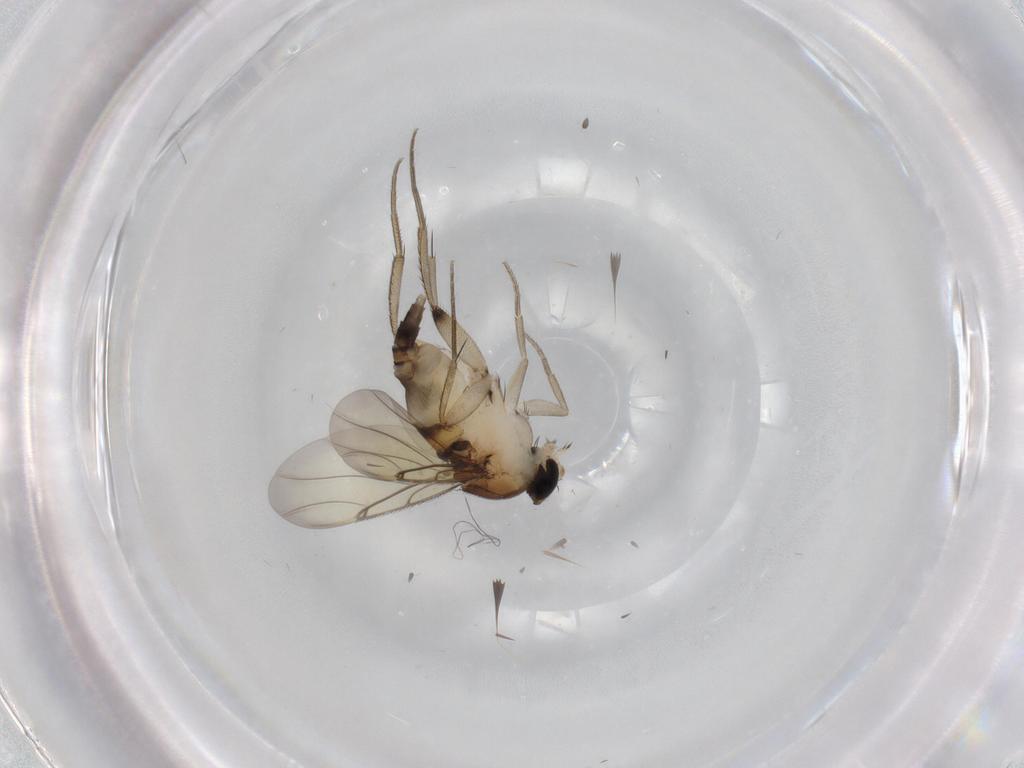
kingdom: Animalia
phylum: Arthropoda
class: Insecta
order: Diptera
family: Phoridae
